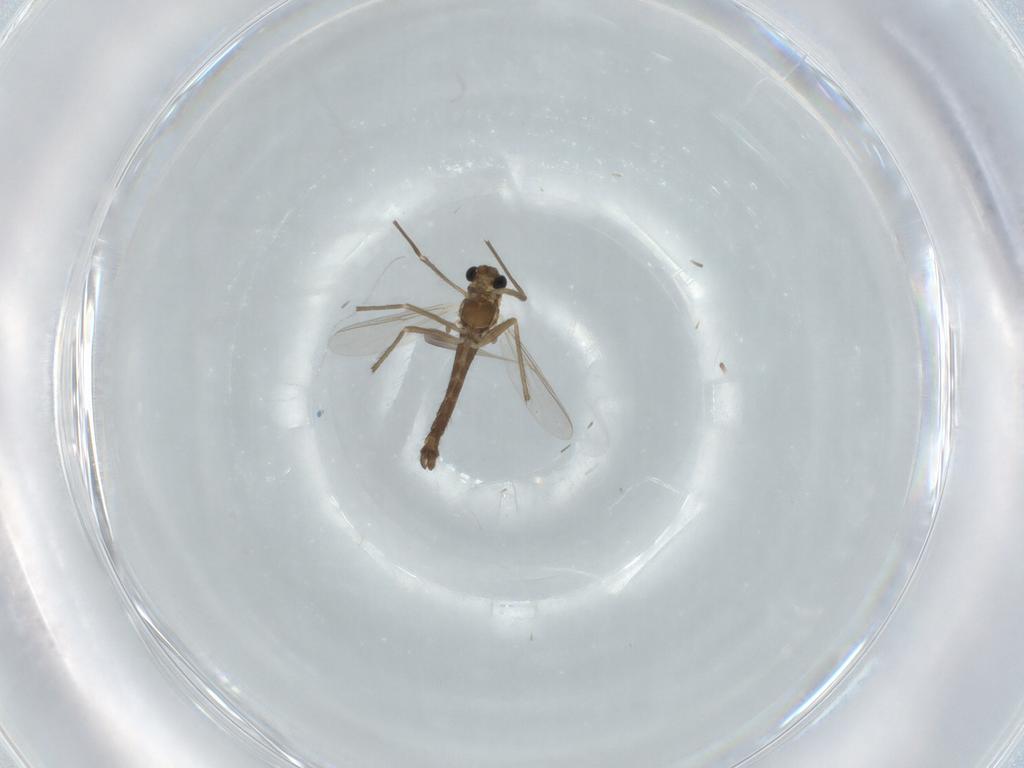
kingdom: Animalia
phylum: Arthropoda
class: Insecta
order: Diptera
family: Chironomidae
